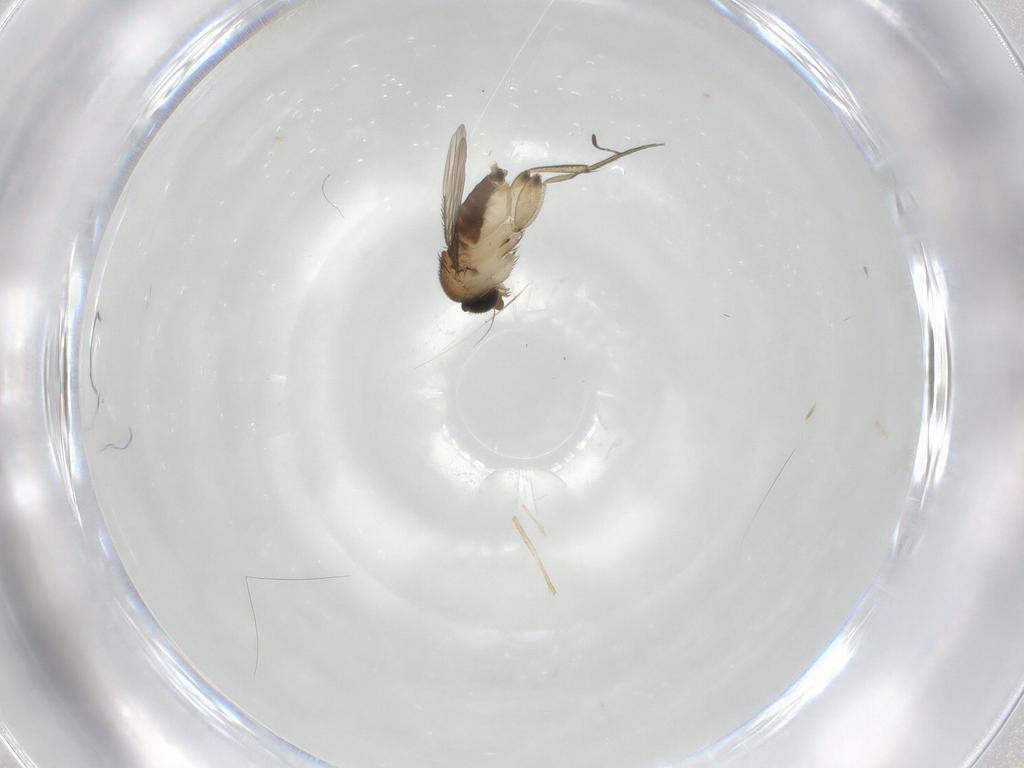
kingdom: Animalia
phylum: Arthropoda
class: Insecta
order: Diptera
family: Phoridae
